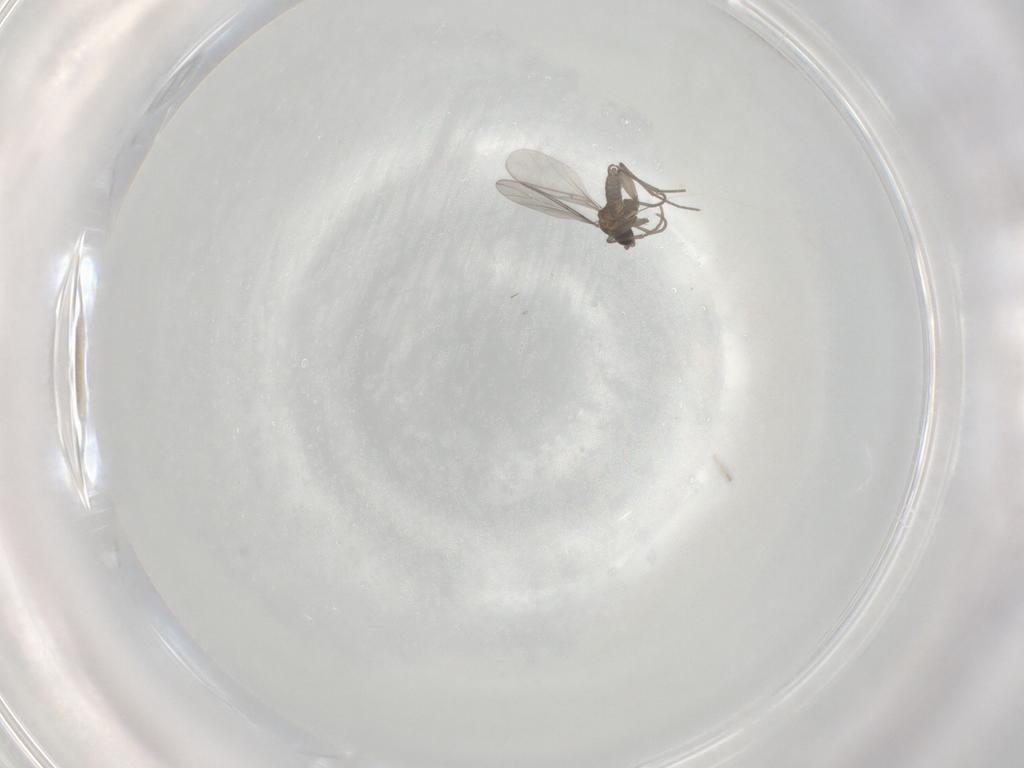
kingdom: Animalia
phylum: Arthropoda
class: Insecta
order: Diptera
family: Sciaridae
